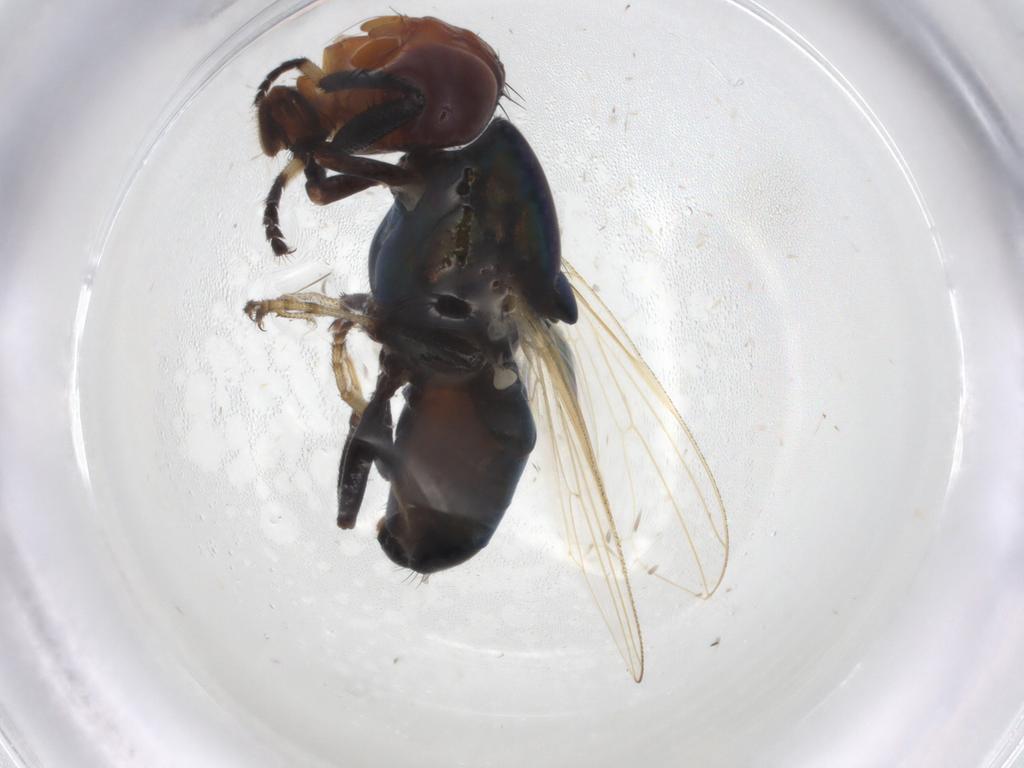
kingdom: Animalia
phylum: Arthropoda
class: Insecta
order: Diptera
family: Ulidiidae
